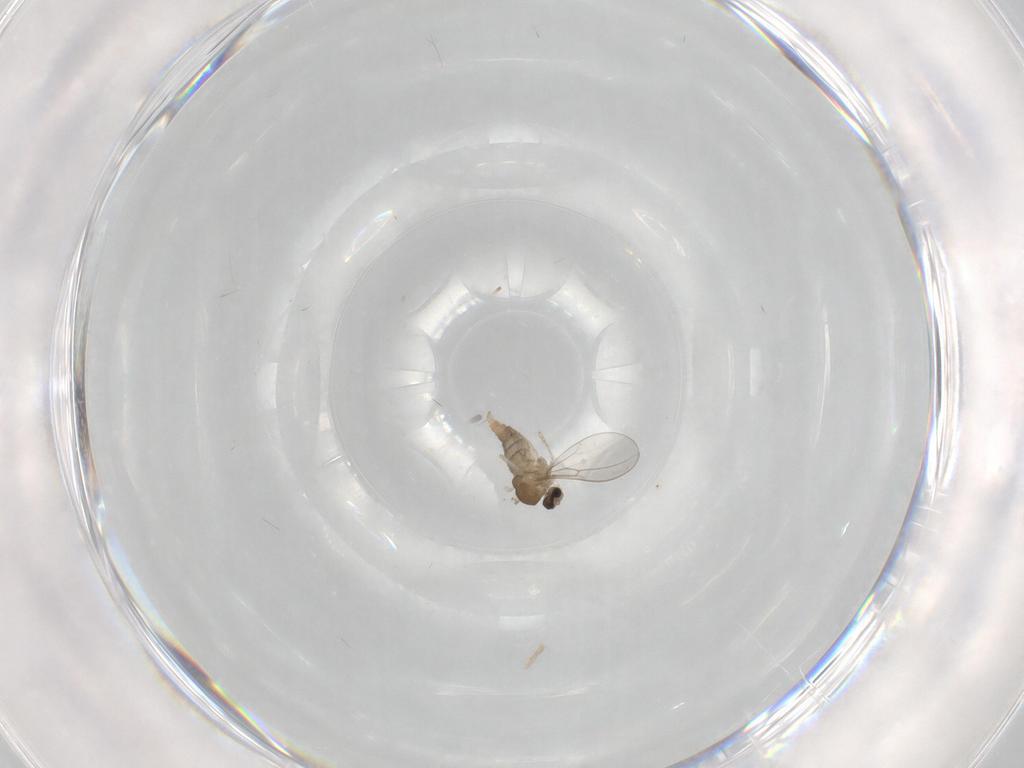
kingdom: Animalia
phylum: Arthropoda
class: Insecta
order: Diptera
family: Cecidomyiidae
